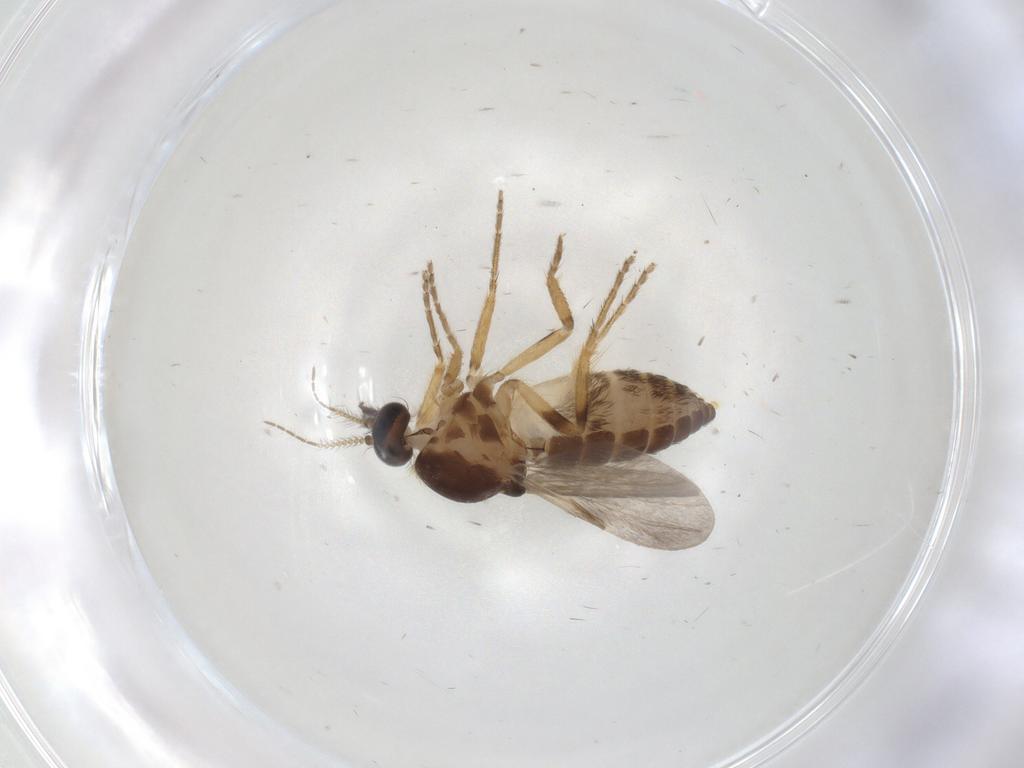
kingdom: Animalia
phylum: Arthropoda
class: Insecta
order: Diptera
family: Ceratopogonidae
